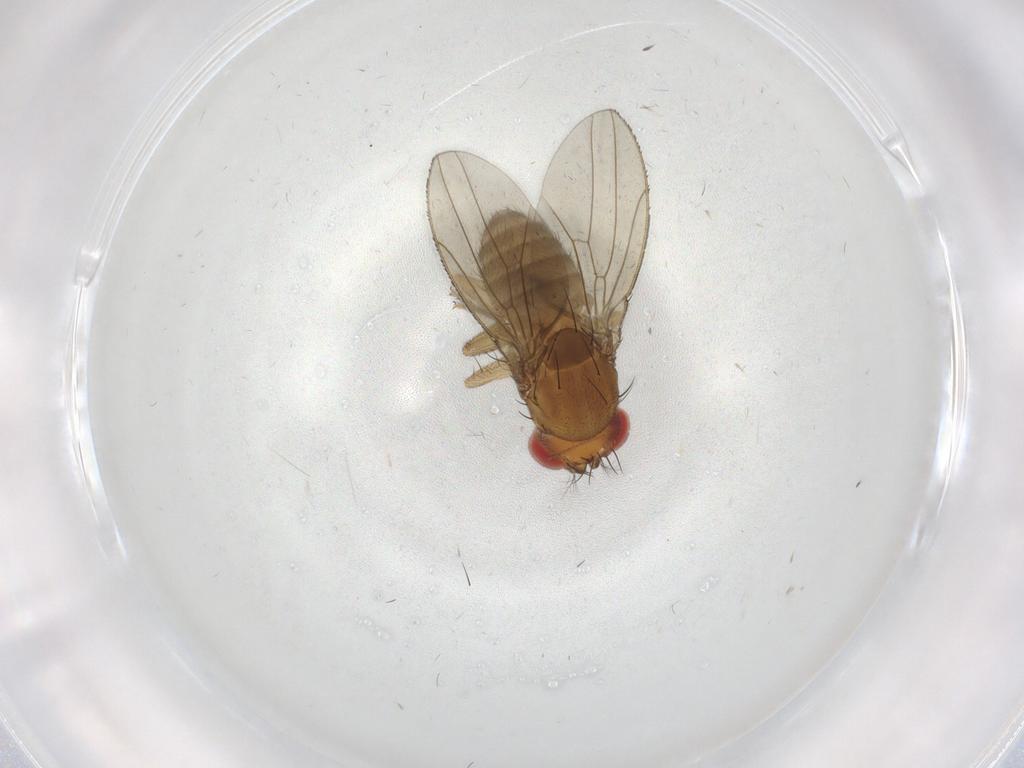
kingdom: Animalia
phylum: Arthropoda
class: Insecta
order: Diptera
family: Drosophilidae
